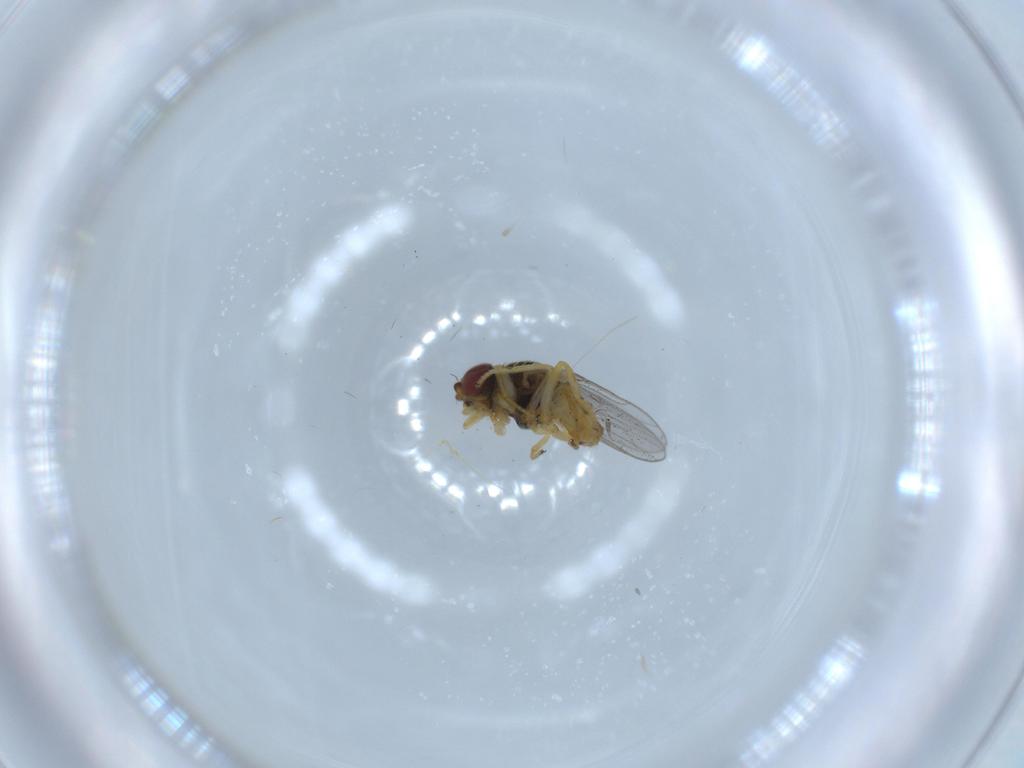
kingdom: Animalia
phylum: Arthropoda
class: Insecta
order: Diptera
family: Chloropidae
